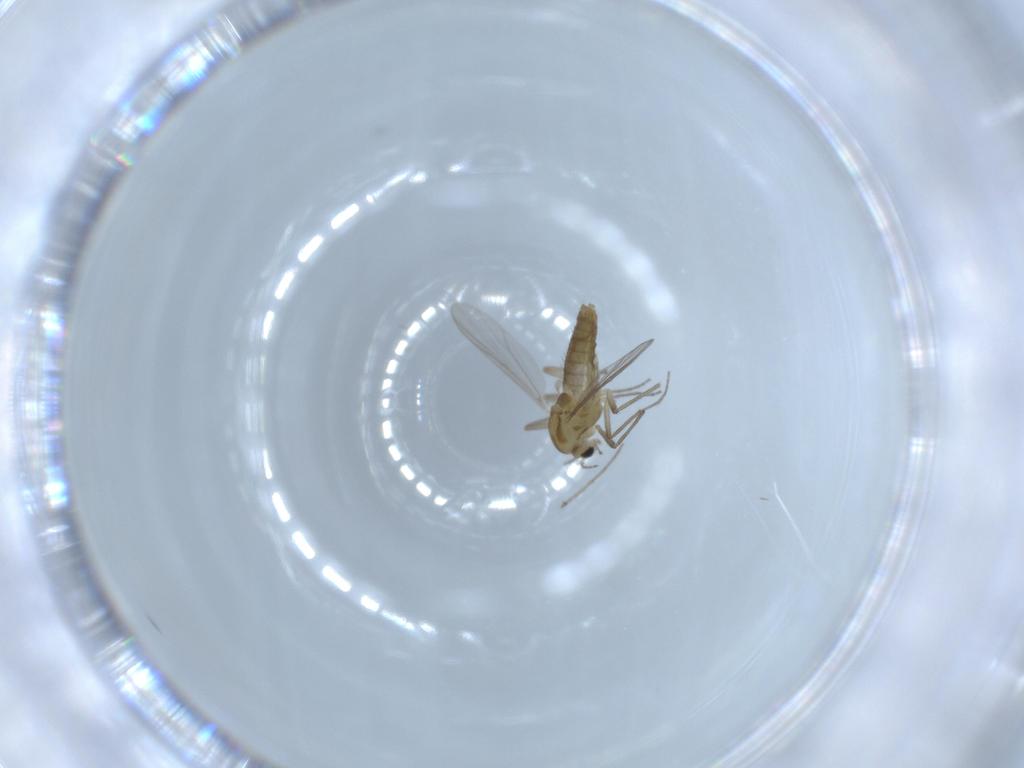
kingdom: Animalia
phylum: Arthropoda
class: Insecta
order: Diptera
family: Chironomidae
